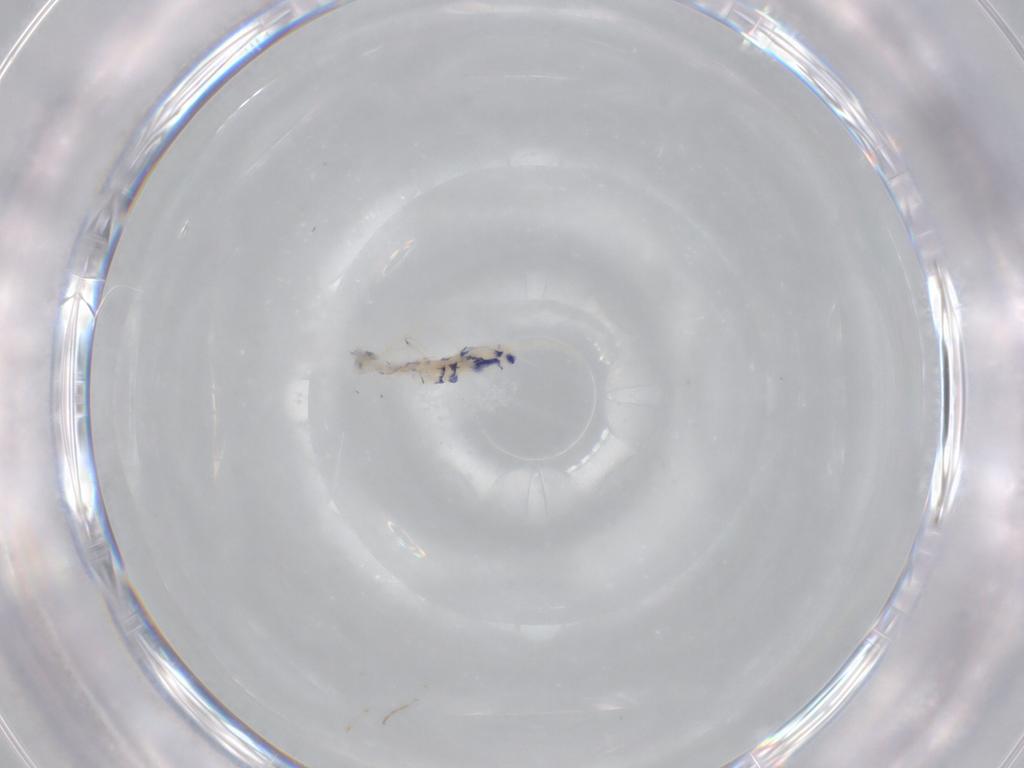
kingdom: Animalia
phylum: Arthropoda
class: Collembola
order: Entomobryomorpha
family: Entomobryidae
